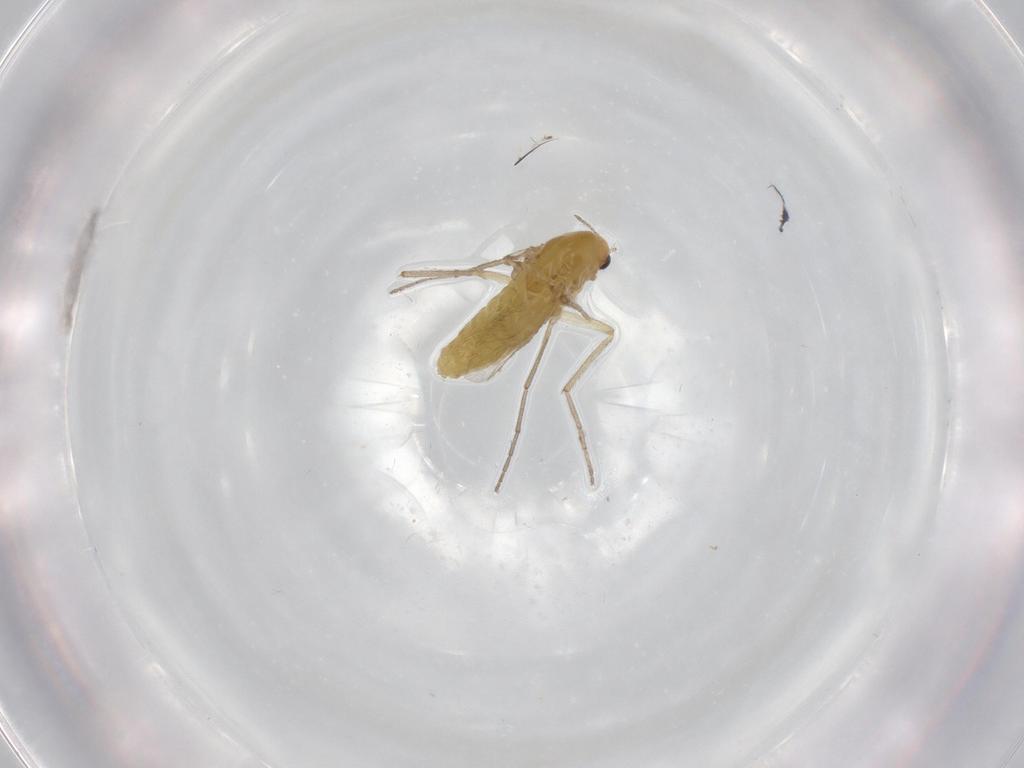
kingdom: Animalia
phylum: Arthropoda
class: Insecta
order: Diptera
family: Chironomidae
